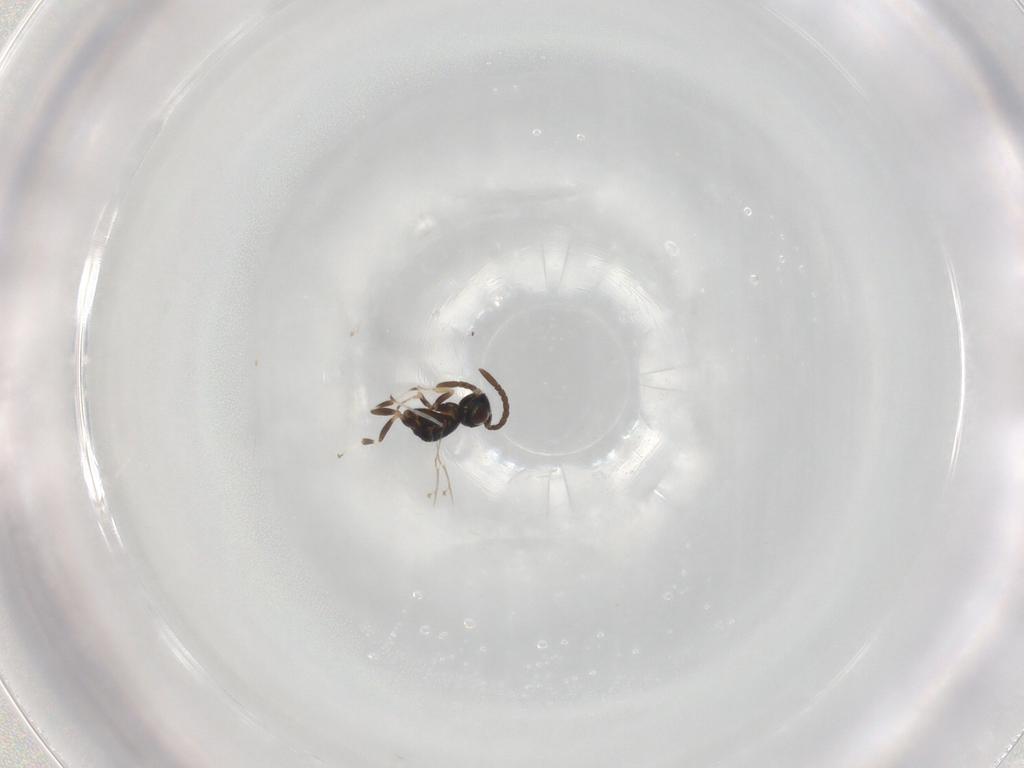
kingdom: Animalia
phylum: Arthropoda
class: Insecta
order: Hymenoptera
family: Eupelmidae
